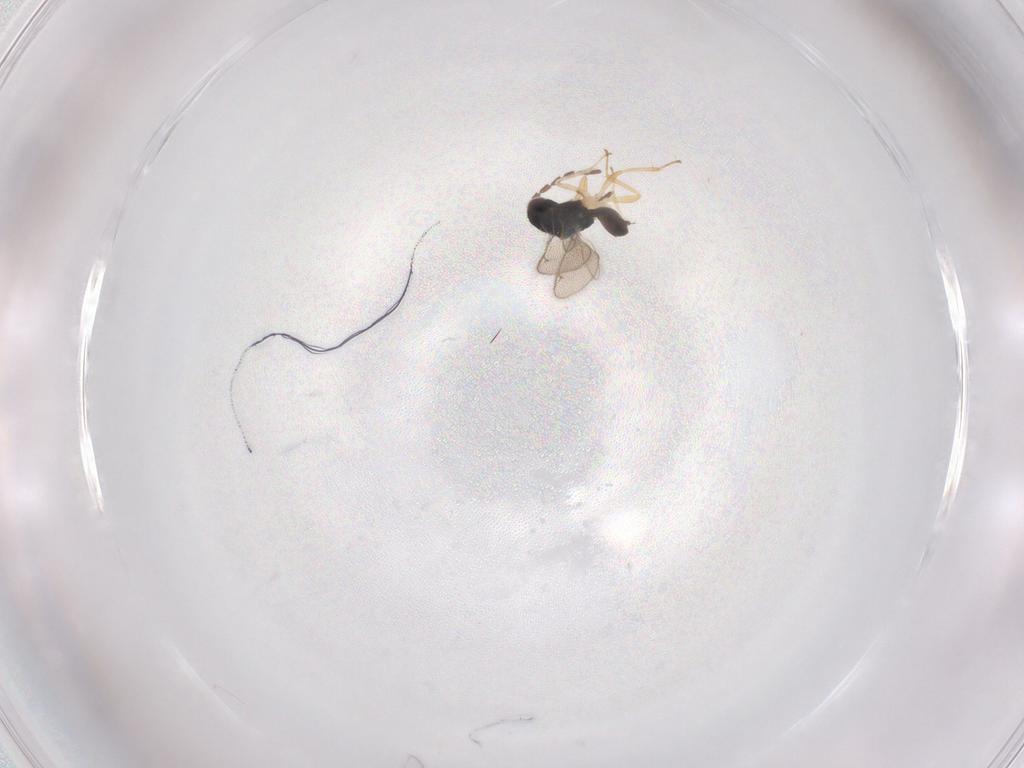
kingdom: Animalia
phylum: Arthropoda
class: Insecta
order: Hymenoptera
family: Eulophidae
